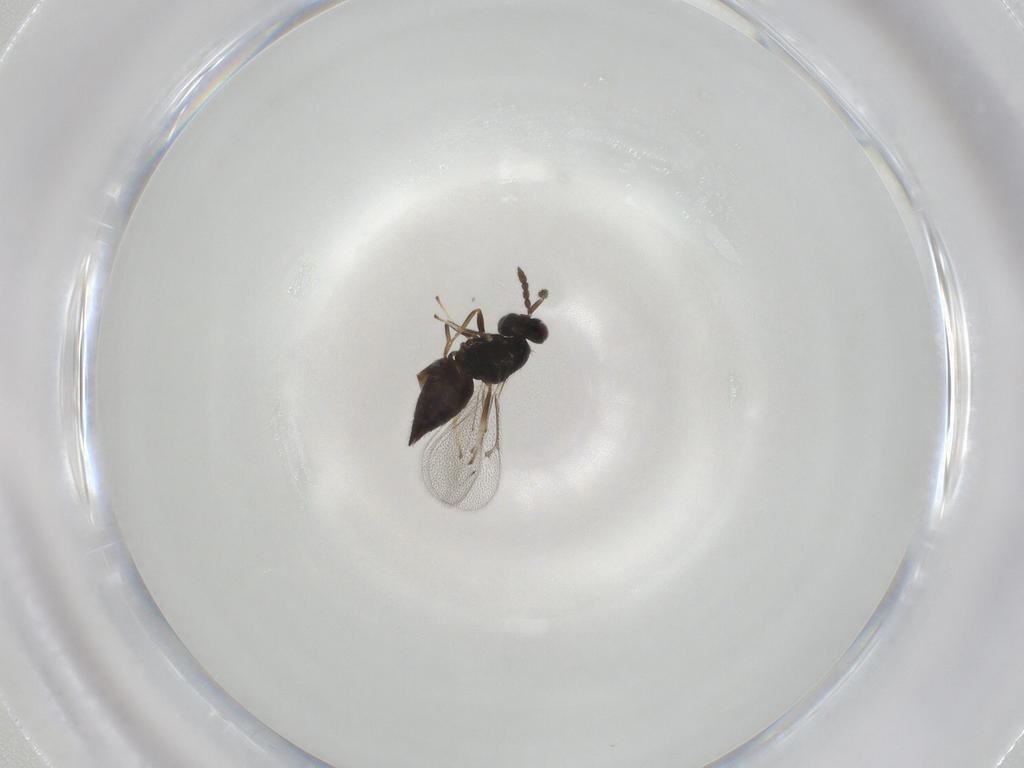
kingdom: Animalia
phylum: Arthropoda
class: Insecta
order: Hymenoptera
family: Eulophidae
